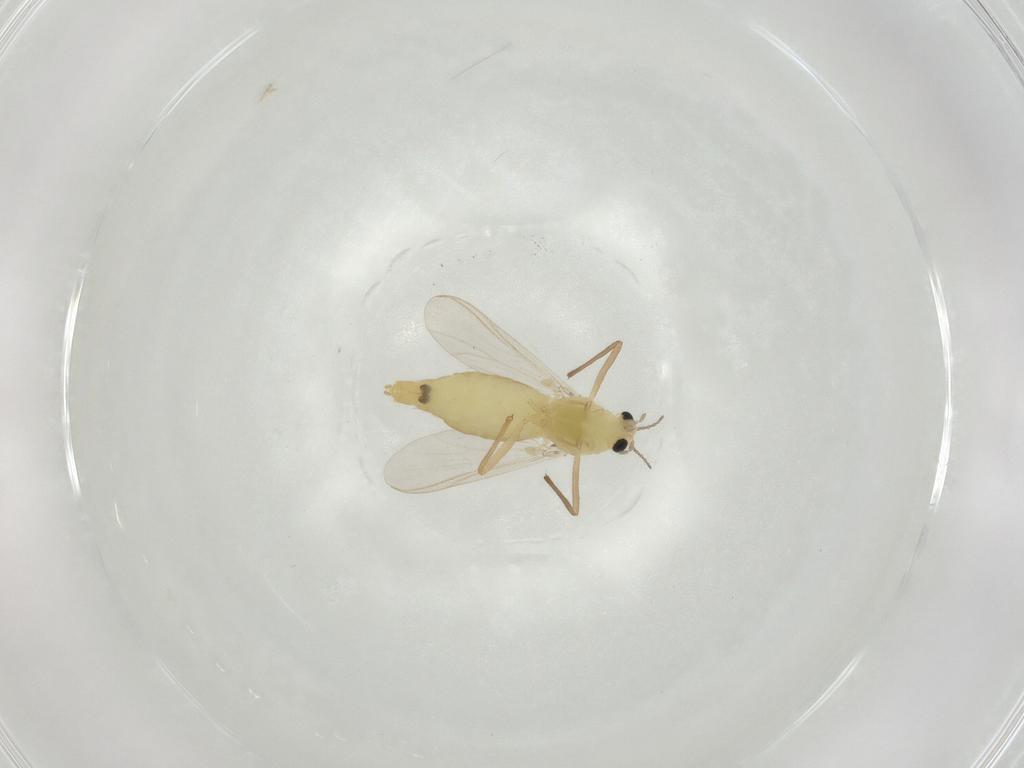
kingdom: Animalia
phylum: Arthropoda
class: Insecta
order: Diptera
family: Chironomidae
